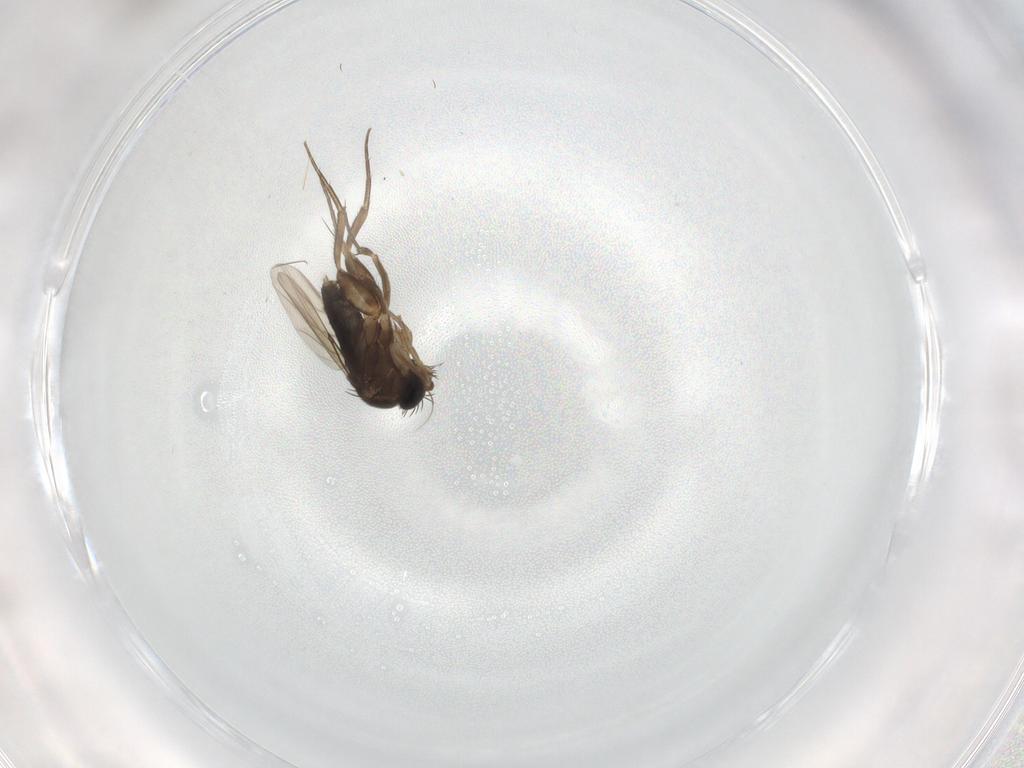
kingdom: Animalia
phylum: Arthropoda
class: Insecta
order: Diptera
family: Phoridae
